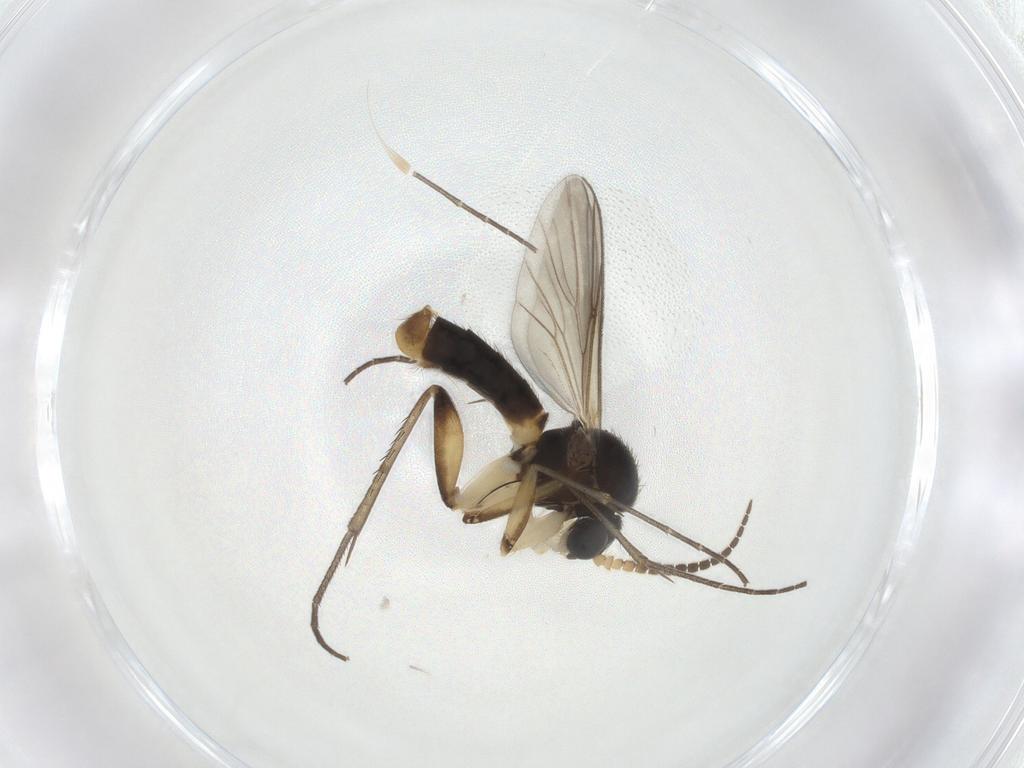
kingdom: Animalia
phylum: Arthropoda
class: Insecta
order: Diptera
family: Mycetophilidae
